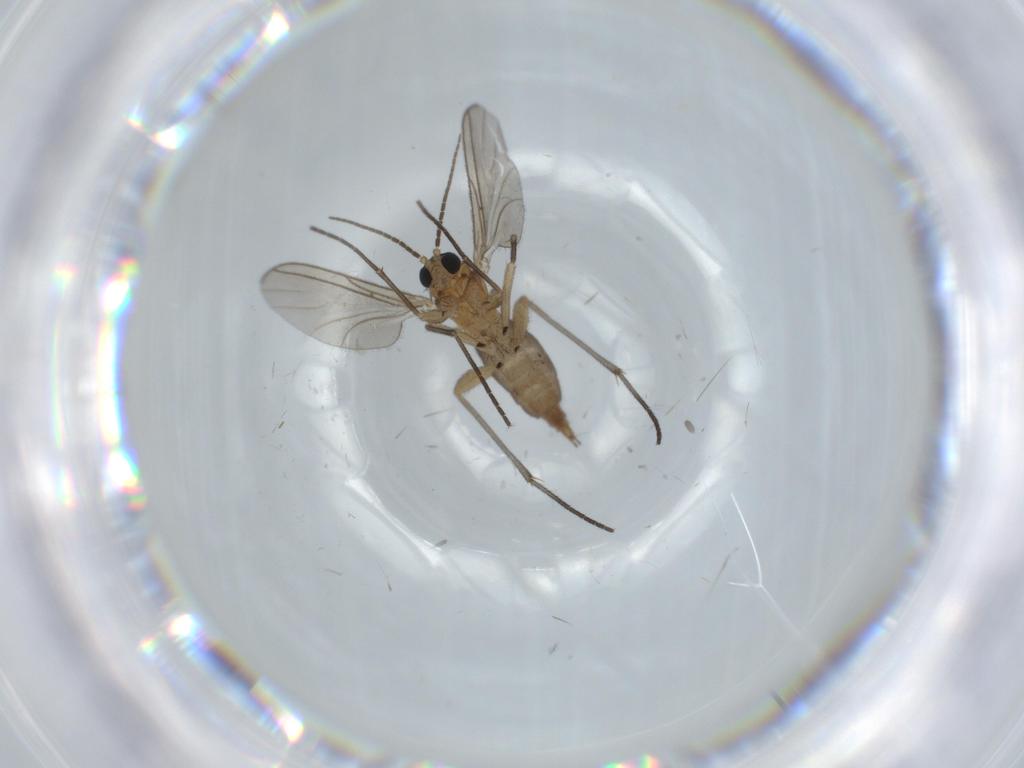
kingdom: Animalia
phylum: Arthropoda
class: Insecta
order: Diptera
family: Sciaridae
